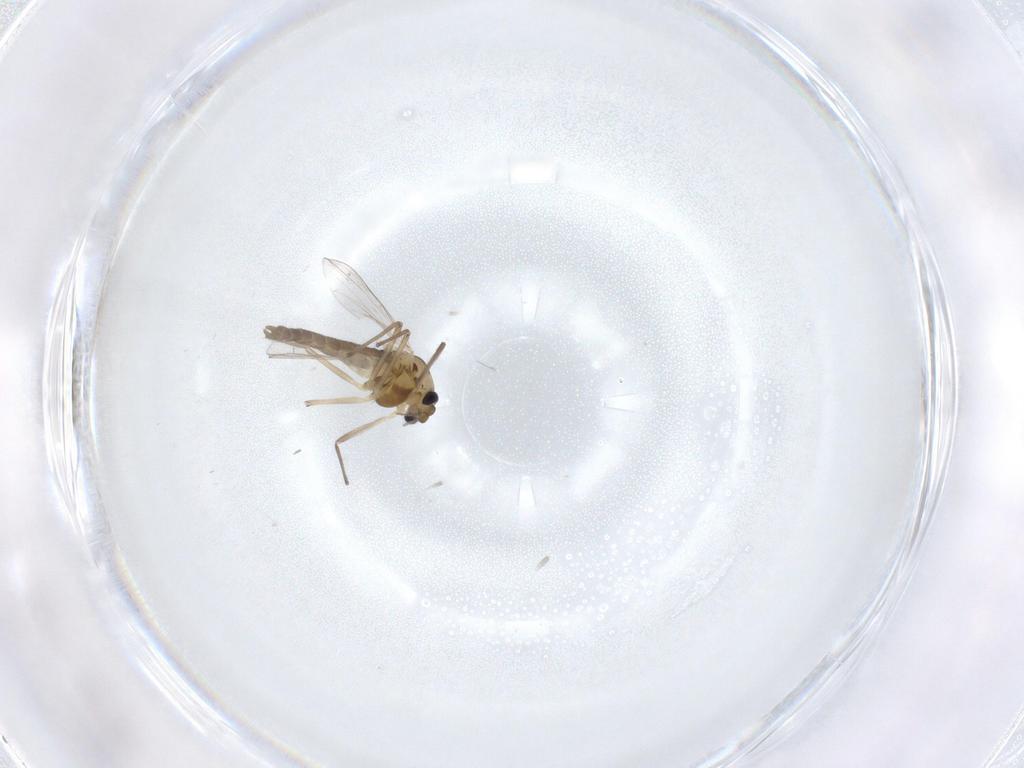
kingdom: Animalia
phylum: Arthropoda
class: Insecta
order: Diptera
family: Chironomidae
